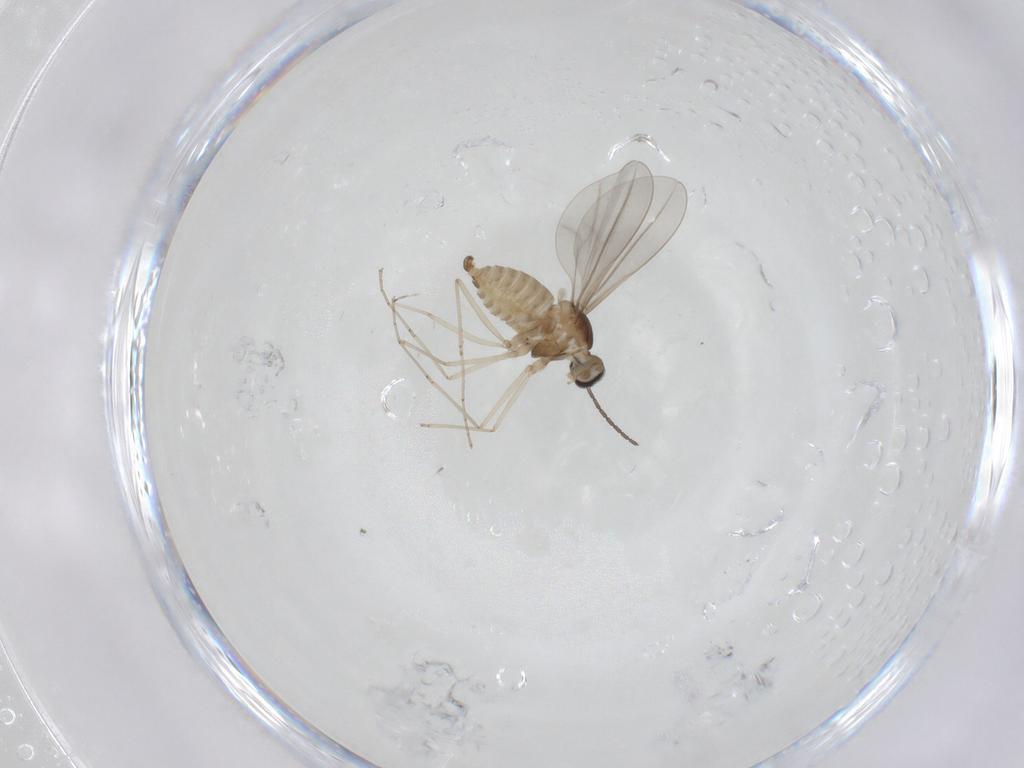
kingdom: Animalia
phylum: Arthropoda
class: Insecta
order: Diptera
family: Cecidomyiidae
